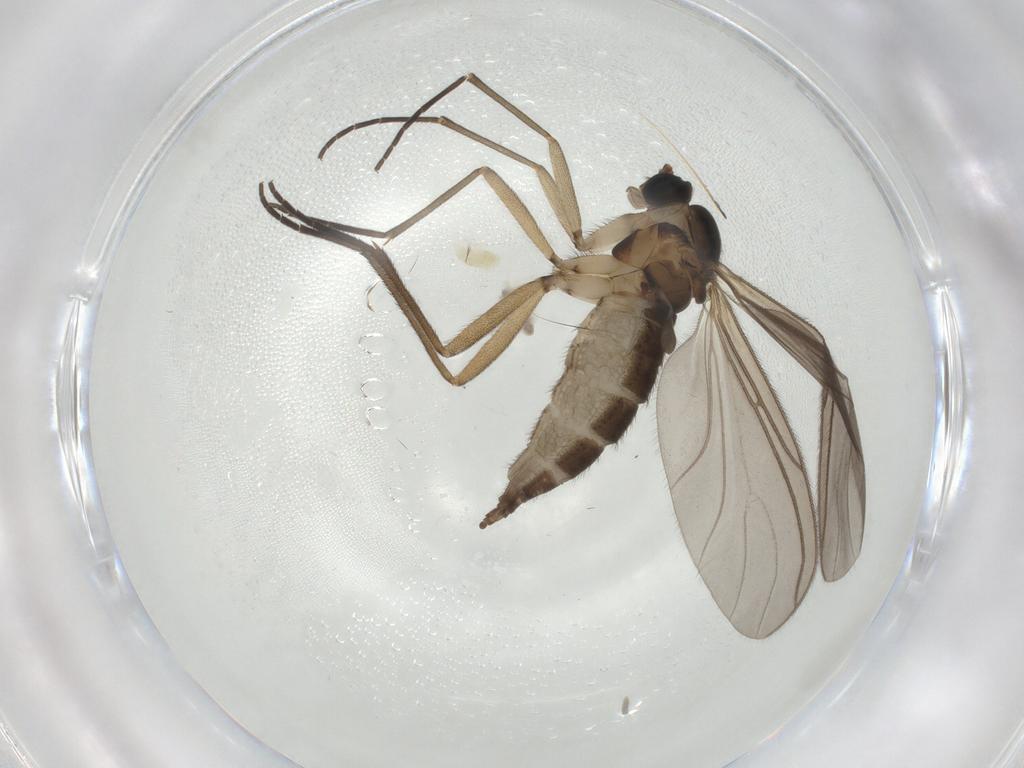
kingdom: Animalia
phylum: Arthropoda
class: Insecta
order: Diptera
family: Sciaridae
